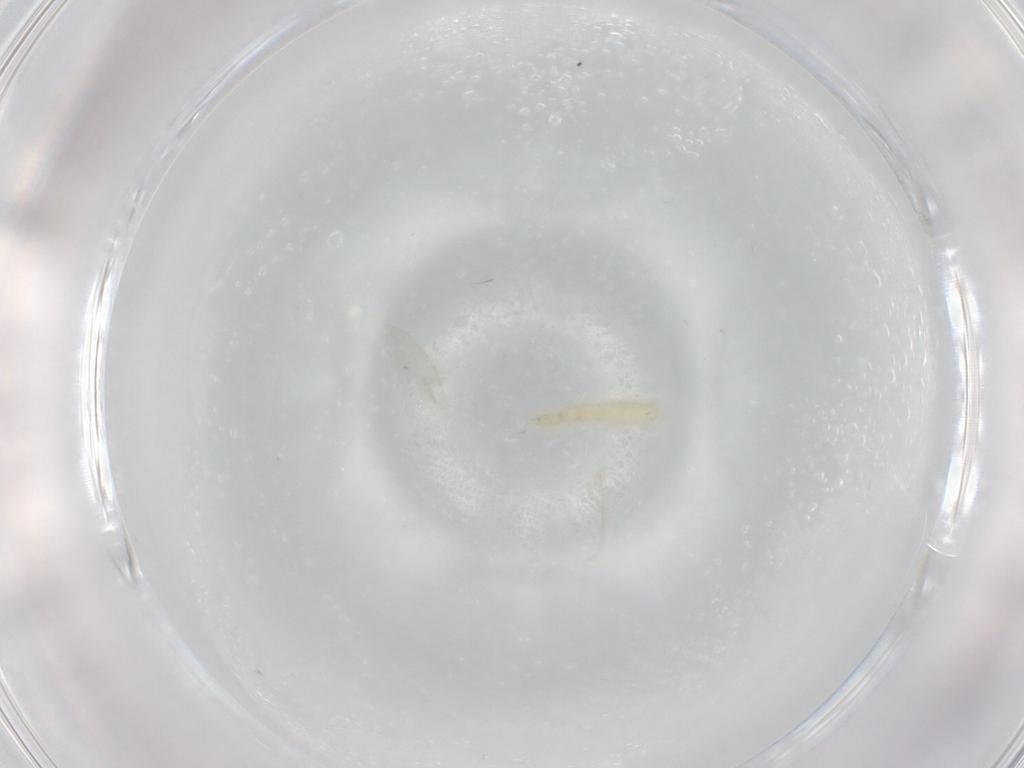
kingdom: Animalia
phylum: Arthropoda
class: Insecta
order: Diptera
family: Chironomidae
